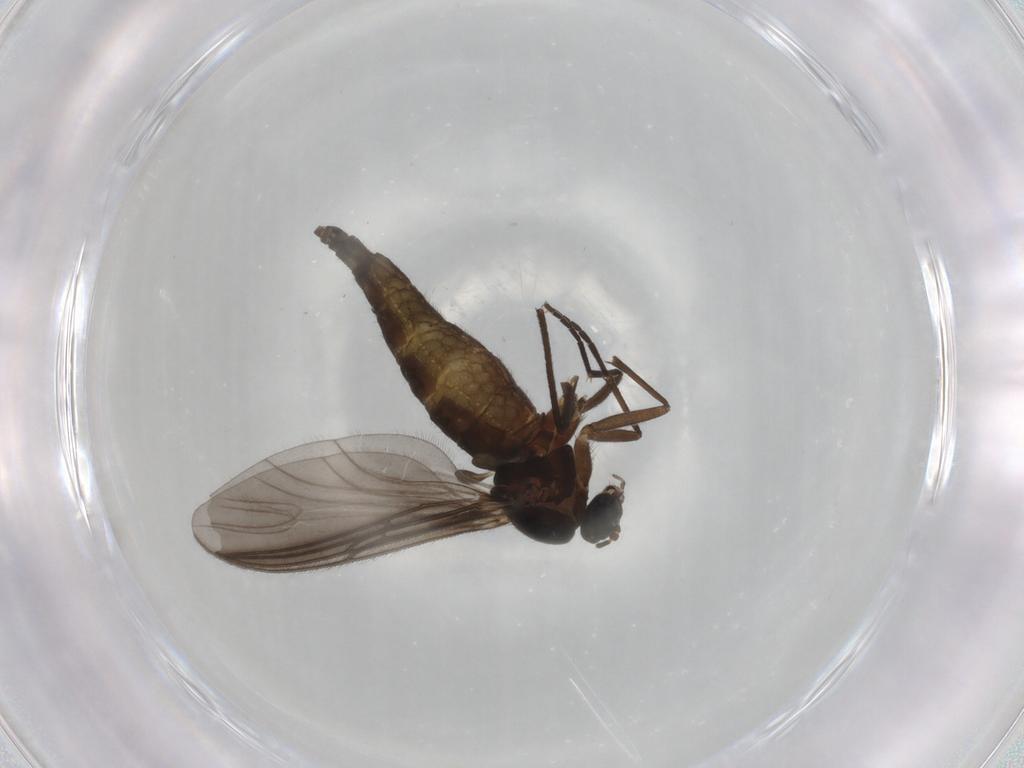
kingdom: Animalia
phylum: Arthropoda
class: Insecta
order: Diptera
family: Sciaridae
